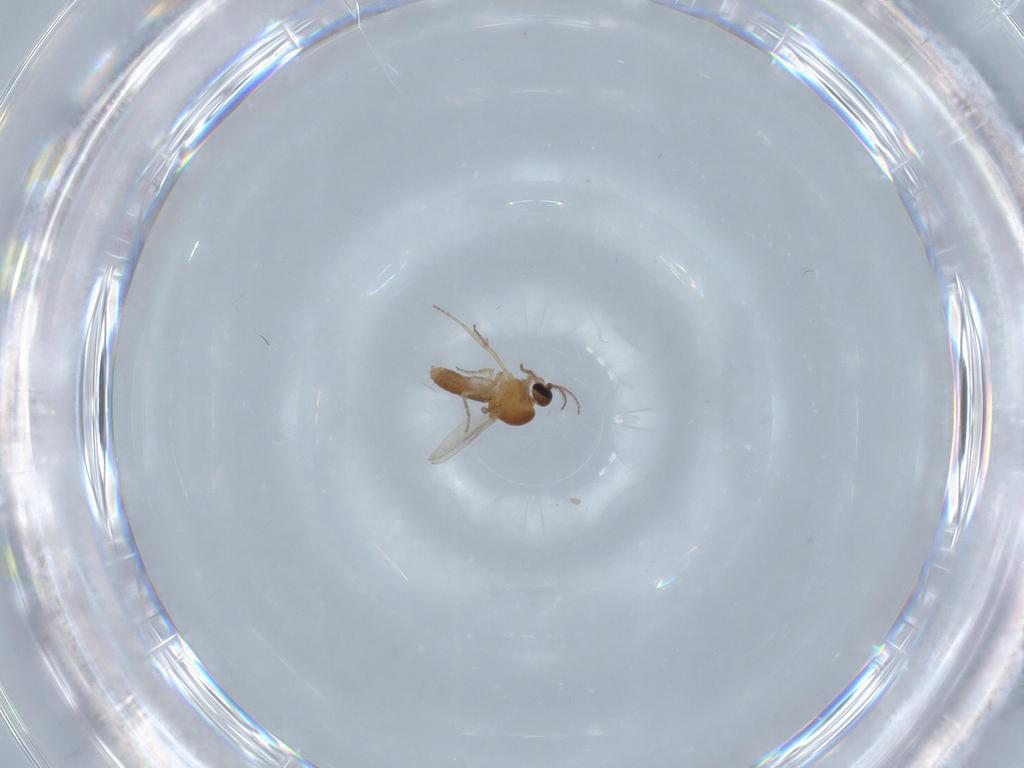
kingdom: Animalia
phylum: Arthropoda
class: Insecta
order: Diptera
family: Ceratopogonidae
